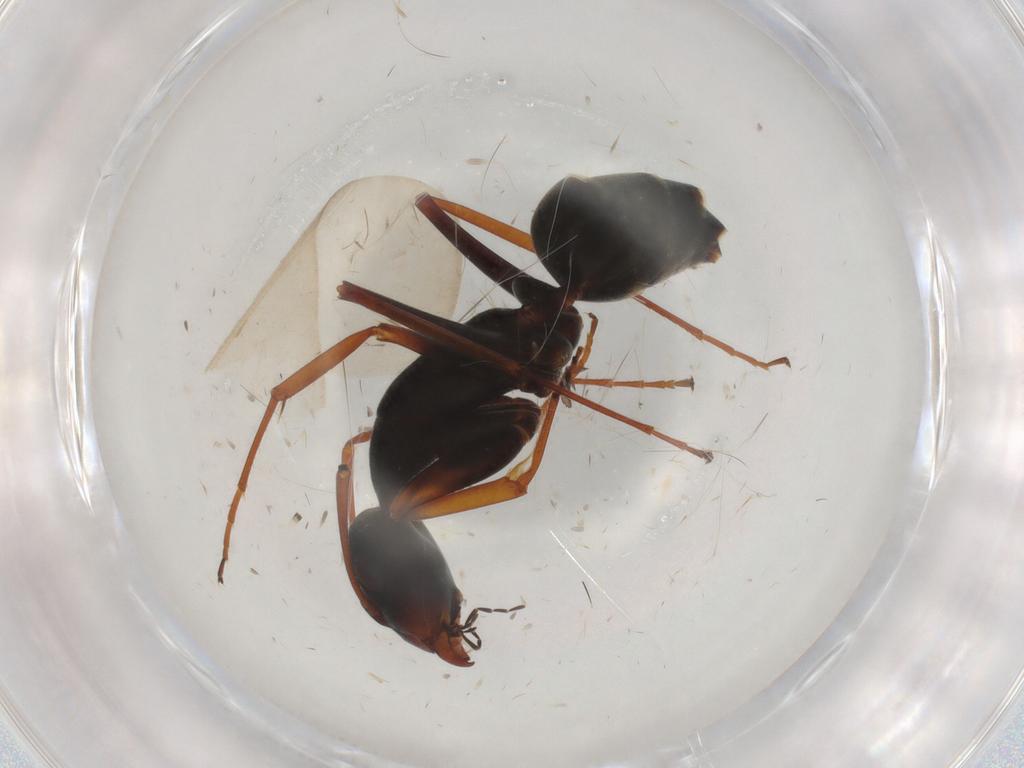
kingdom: Animalia
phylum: Arthropoda
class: Insecta
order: Hymenoptera
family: Formicidae
